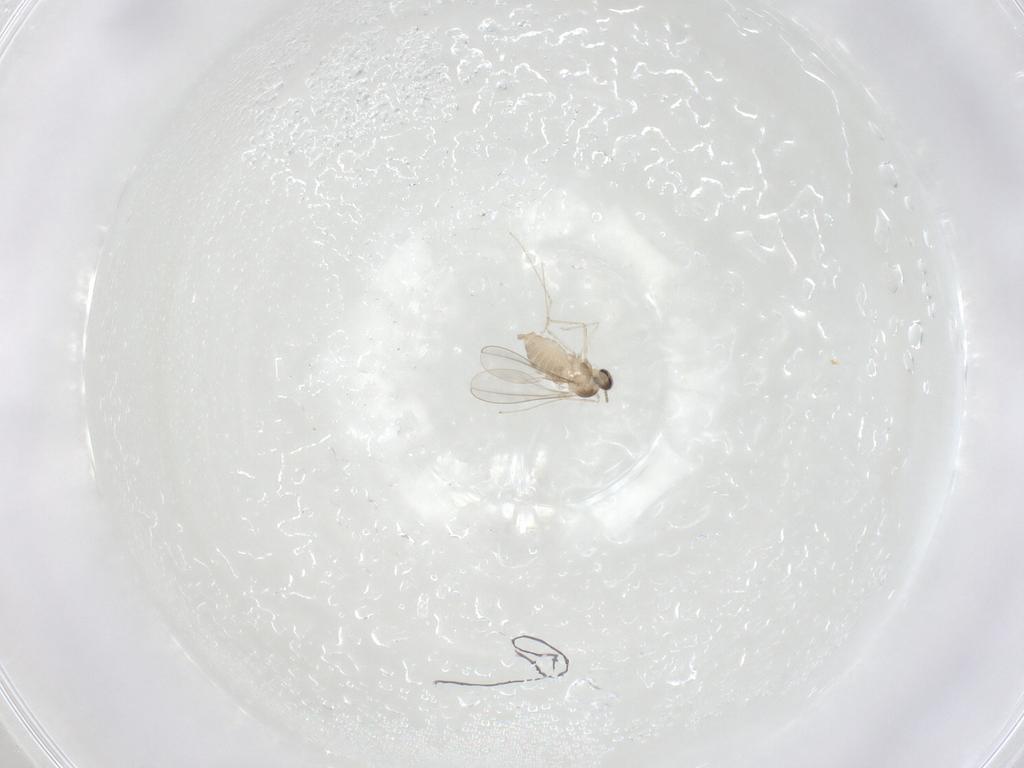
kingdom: Animalia
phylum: Arthropoda
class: Insecta
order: Diptera
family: Cecidomyiidae
